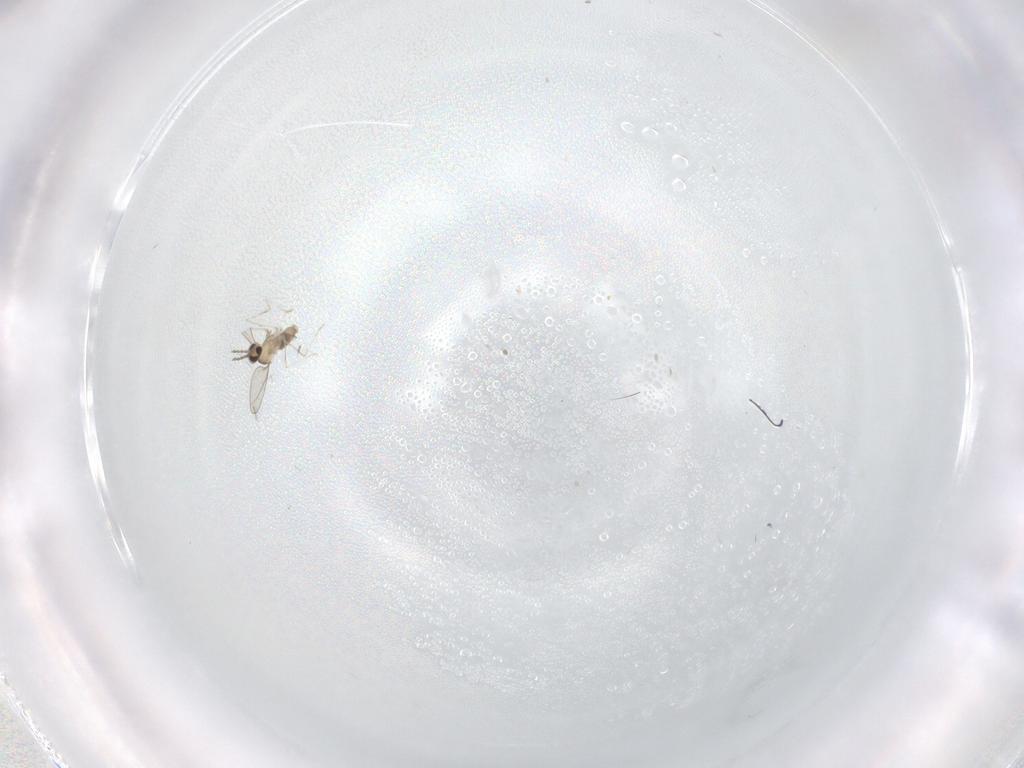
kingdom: Animalia
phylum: Arthropoda
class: Insecta
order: Diptera
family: Cecidomyiidae
